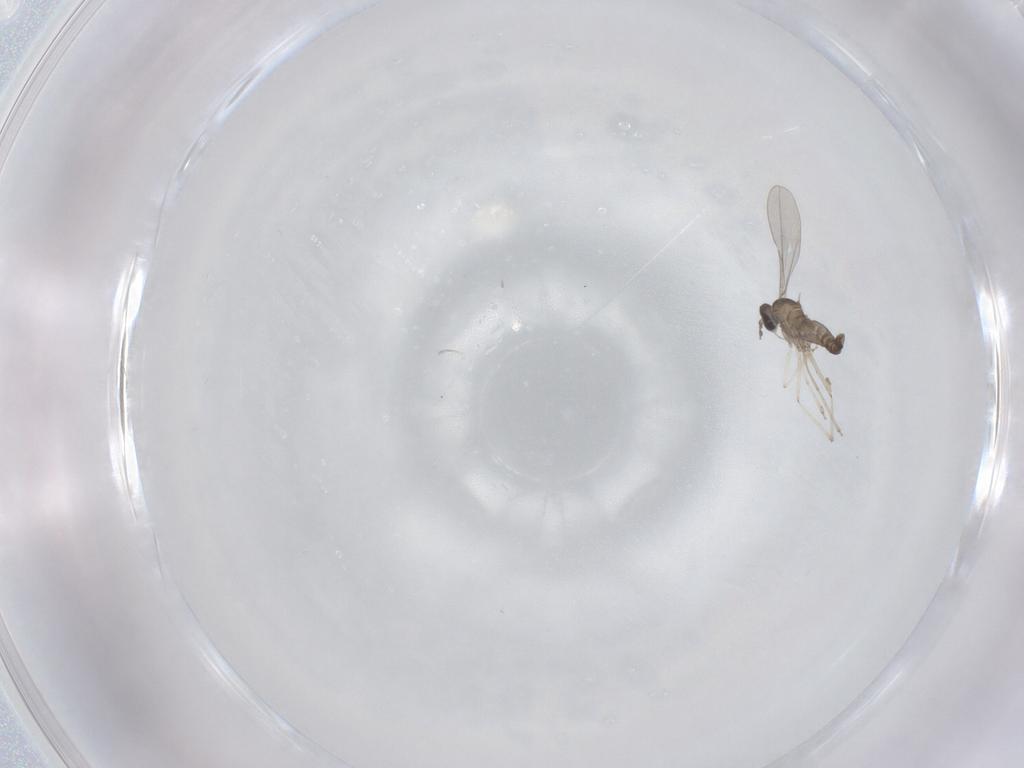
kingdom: Animalia
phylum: Arthropoda
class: Insecta
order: Diptera
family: Cecidomyiidae
